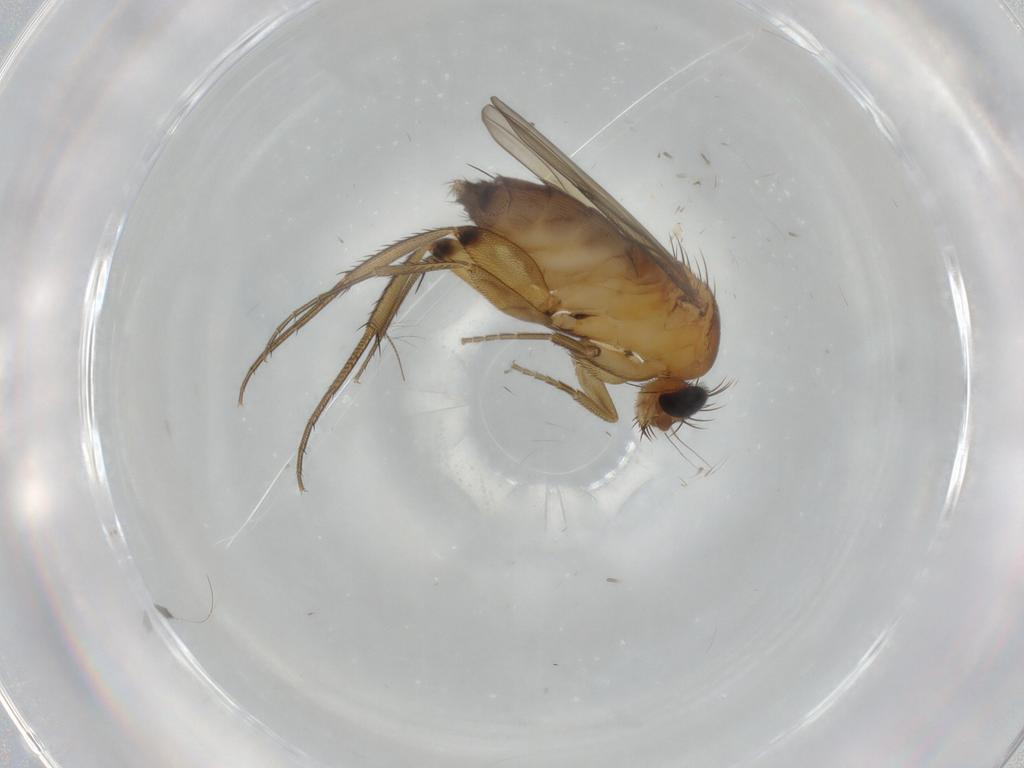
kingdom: Animalia
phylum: Arthropoda
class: Insecta
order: Diptera
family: Phoridae
